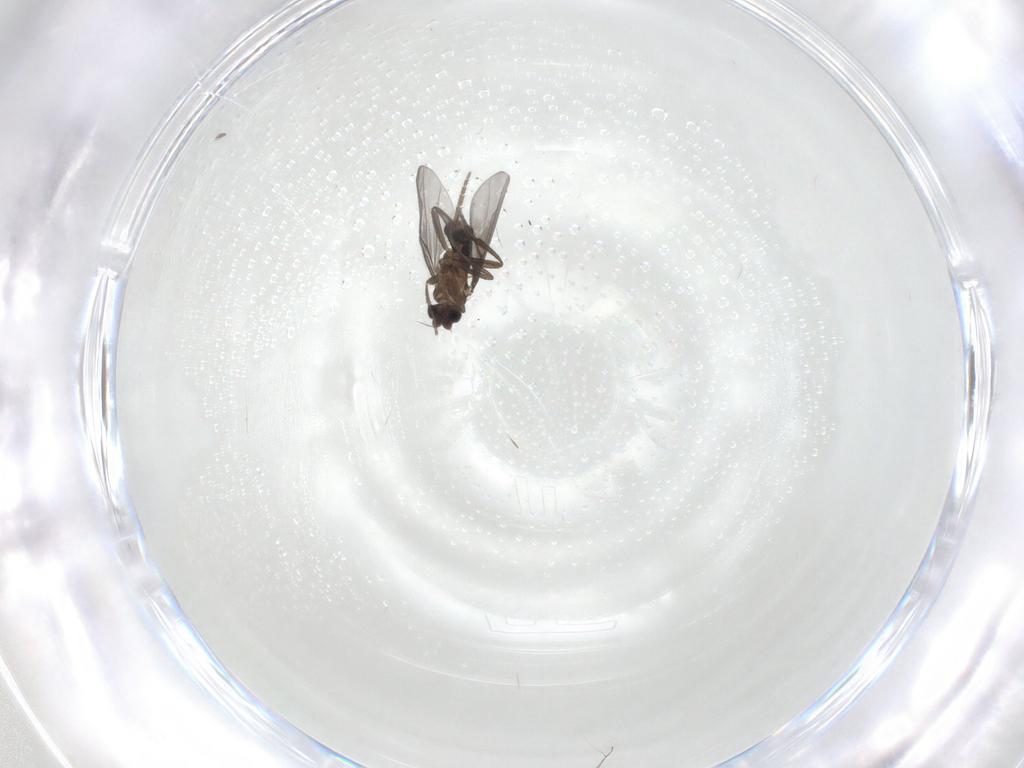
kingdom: Animalia
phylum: Arthropoda
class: Insecta
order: Diptera
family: Cecidomyiidae
